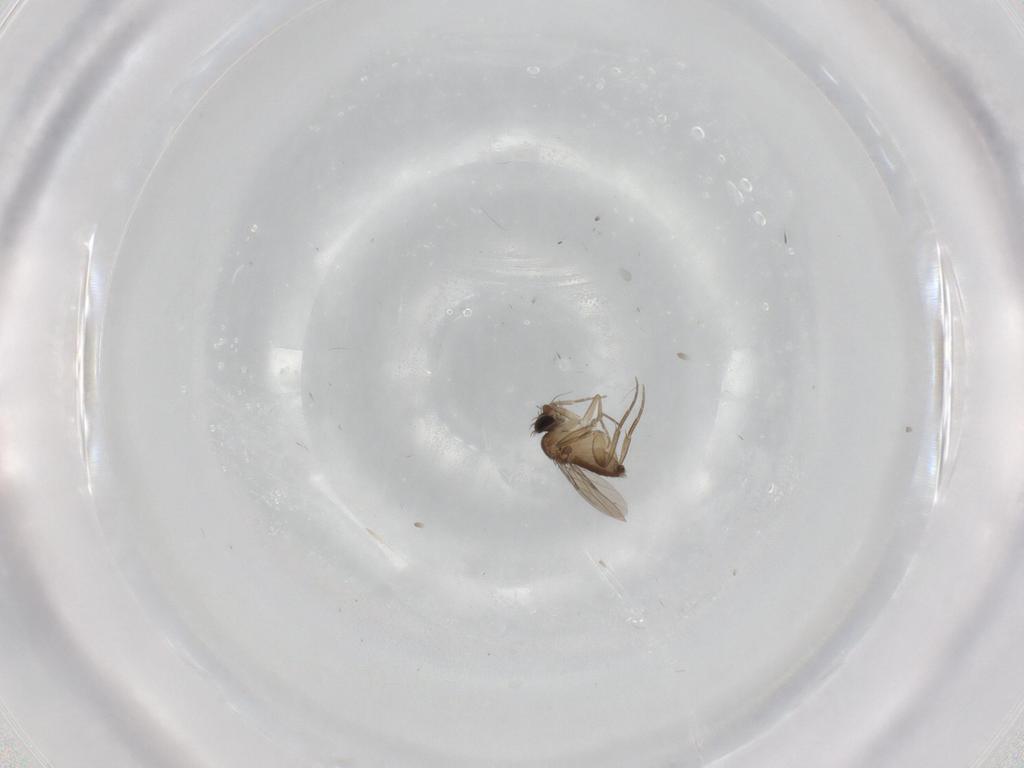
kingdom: Animalia
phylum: Arthropoda
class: Insecta
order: Diptera
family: Phoridae
